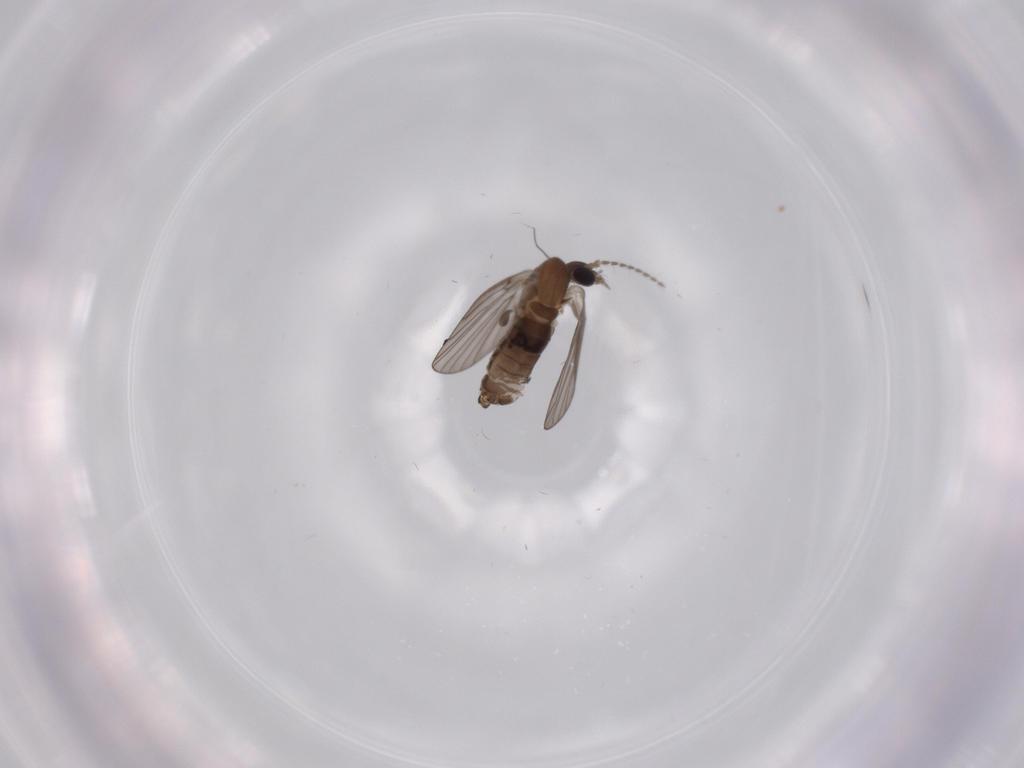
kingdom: Animalia
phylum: Arthropoda
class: Insecta
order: Diptera
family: Psychodidae
